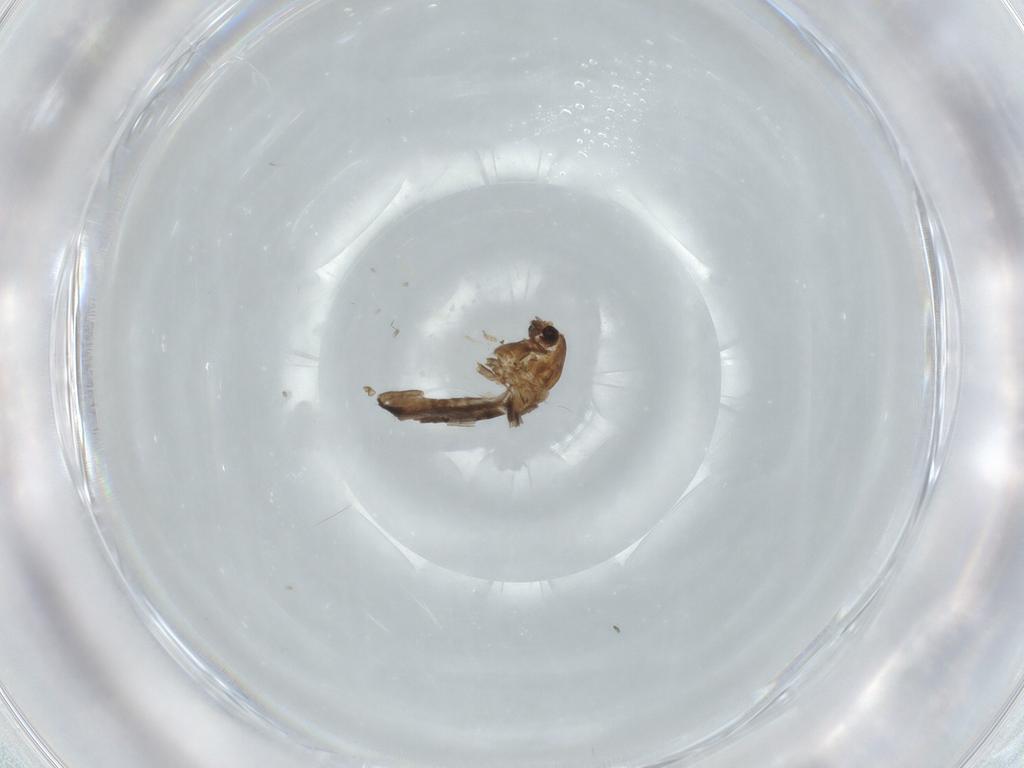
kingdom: Animalia
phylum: Arthropoda
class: Insecta
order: Diptera
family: Chironomidae
